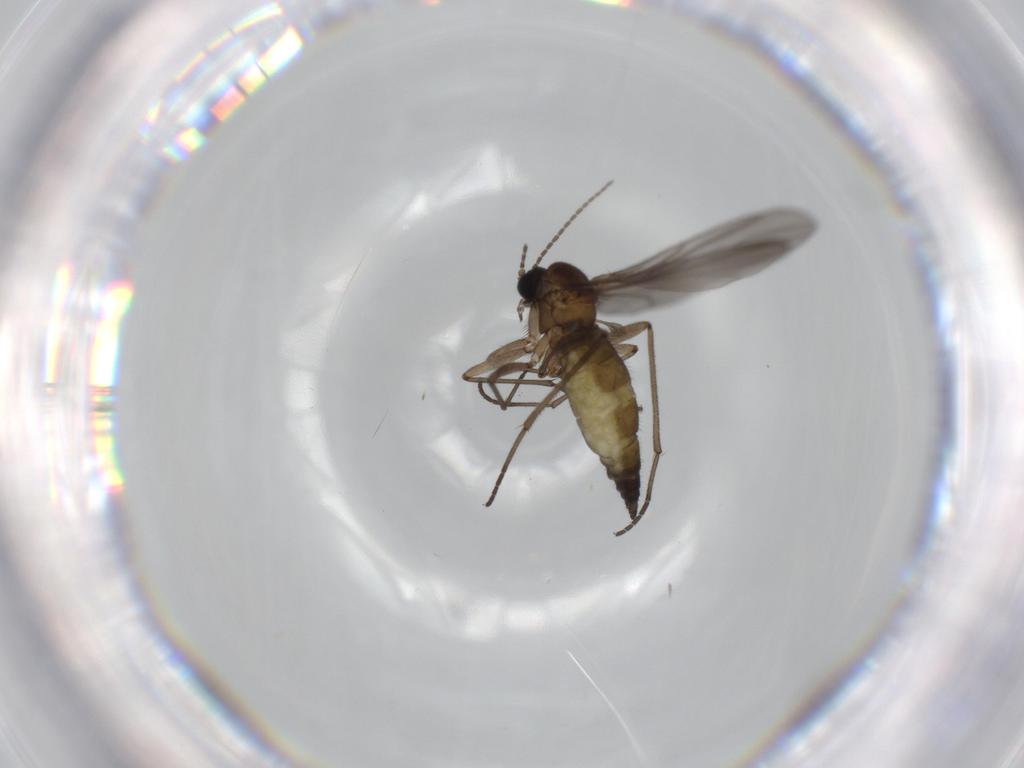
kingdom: Animalia
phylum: Arthropoda
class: Insecta
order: Diptera
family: Sciaridae
